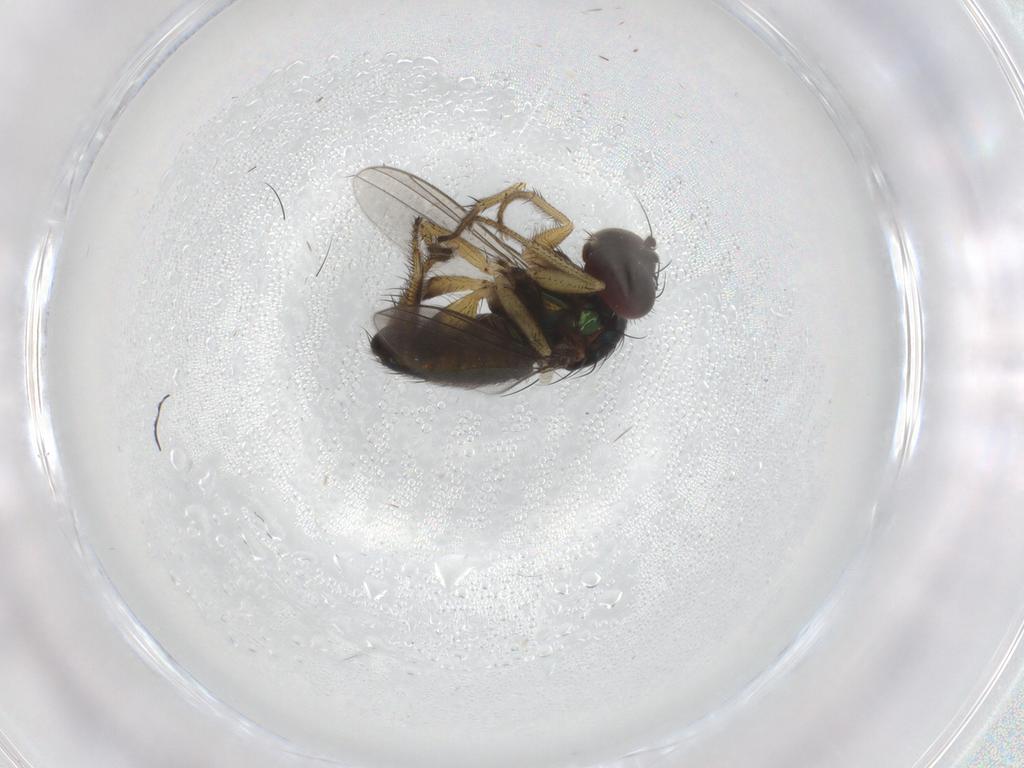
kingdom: Animalia
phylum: Arthropoda
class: Insecta
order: Diptera
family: Dolichopodidae
